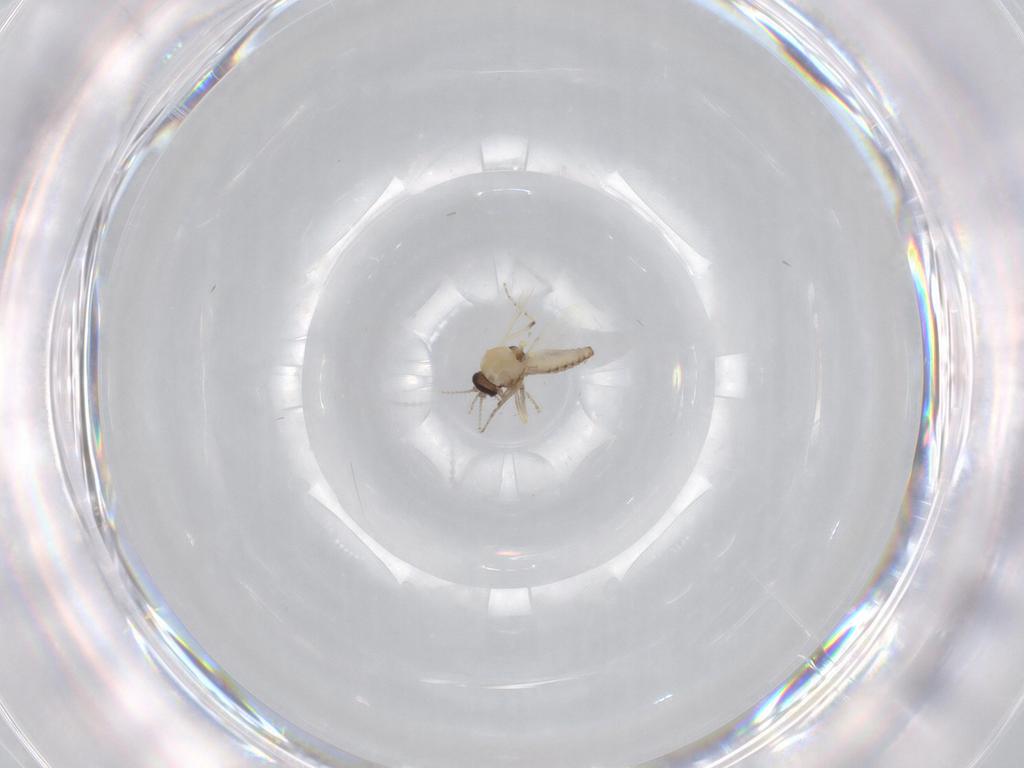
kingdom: Animalia
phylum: Arthropoda
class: Insecta
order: Diptera
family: Ceratopogonidae
